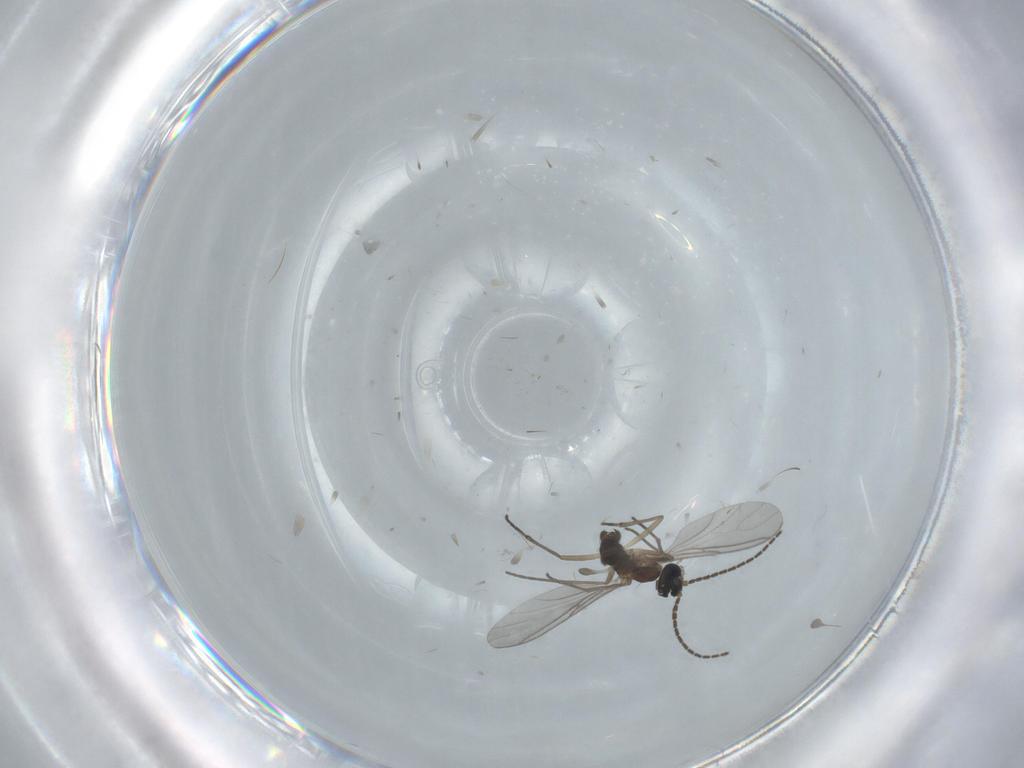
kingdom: Animalia
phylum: Arthropoda
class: Insecta
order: Diptera
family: Sciaridae
